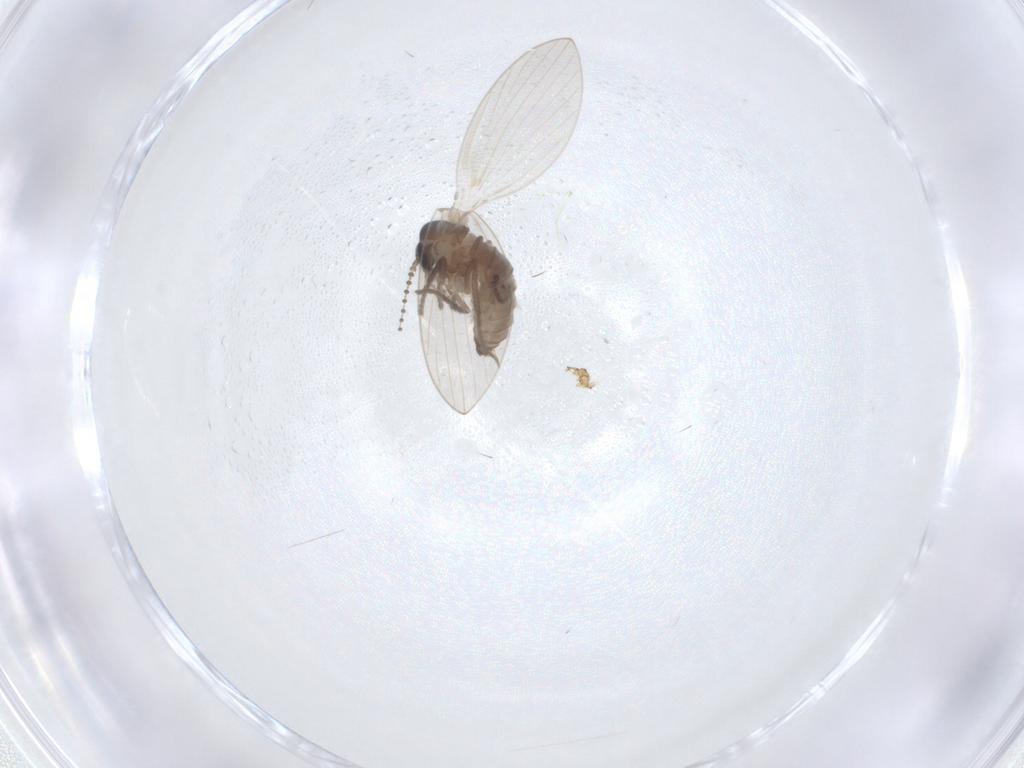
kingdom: Animalia
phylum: Arthropoda
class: Insecta
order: Diptera
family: Psychodidae
